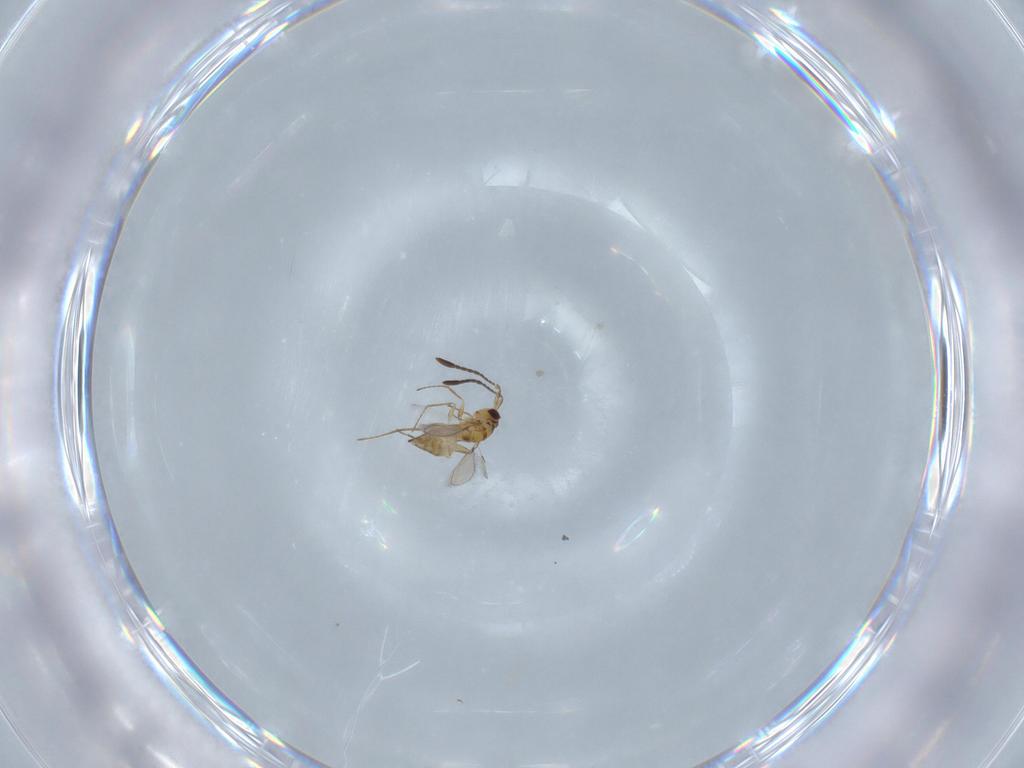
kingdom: Animalia
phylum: Arthropoda
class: Insecta
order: Hymenoptera
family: Mymaridae
